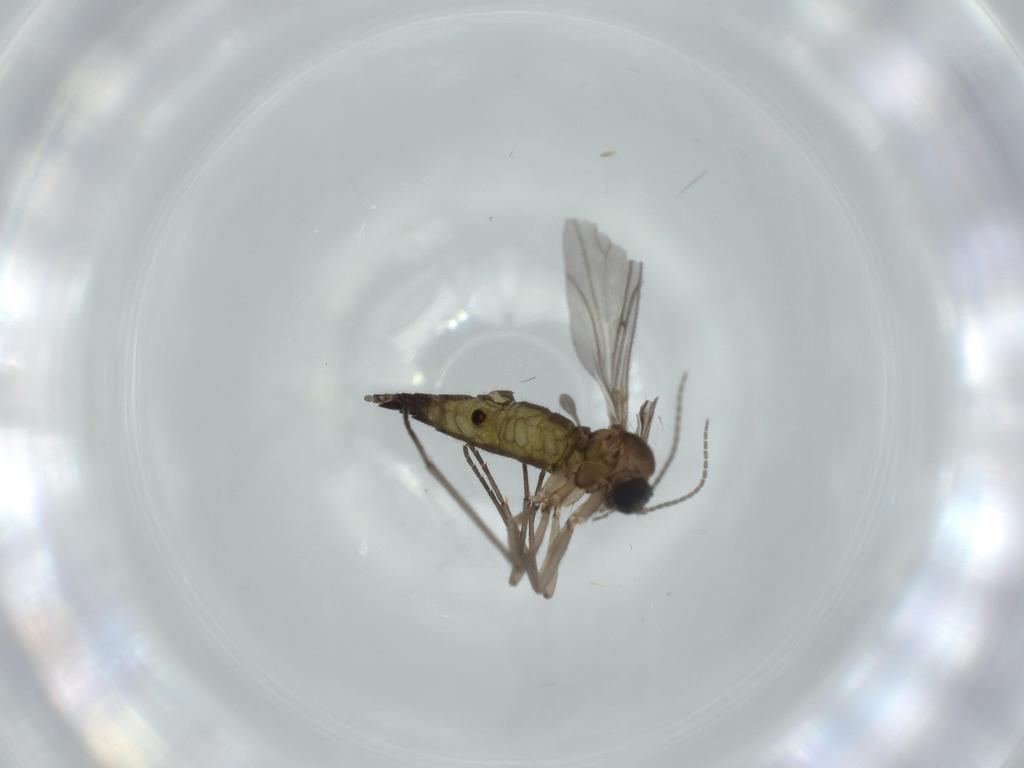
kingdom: Animalia
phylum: Arthropoda
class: Insecta
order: Diptera
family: Sciaridae
